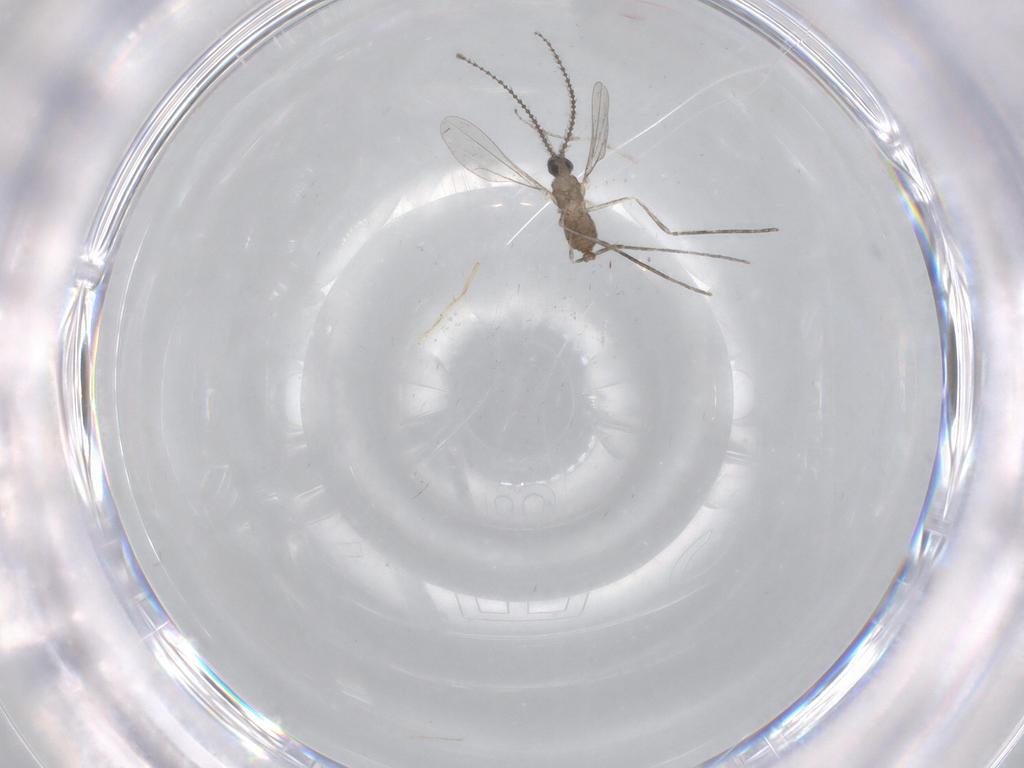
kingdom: Animalia
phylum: Arthropoda
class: Insecta
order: Diptera
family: Cecidomyiidae
